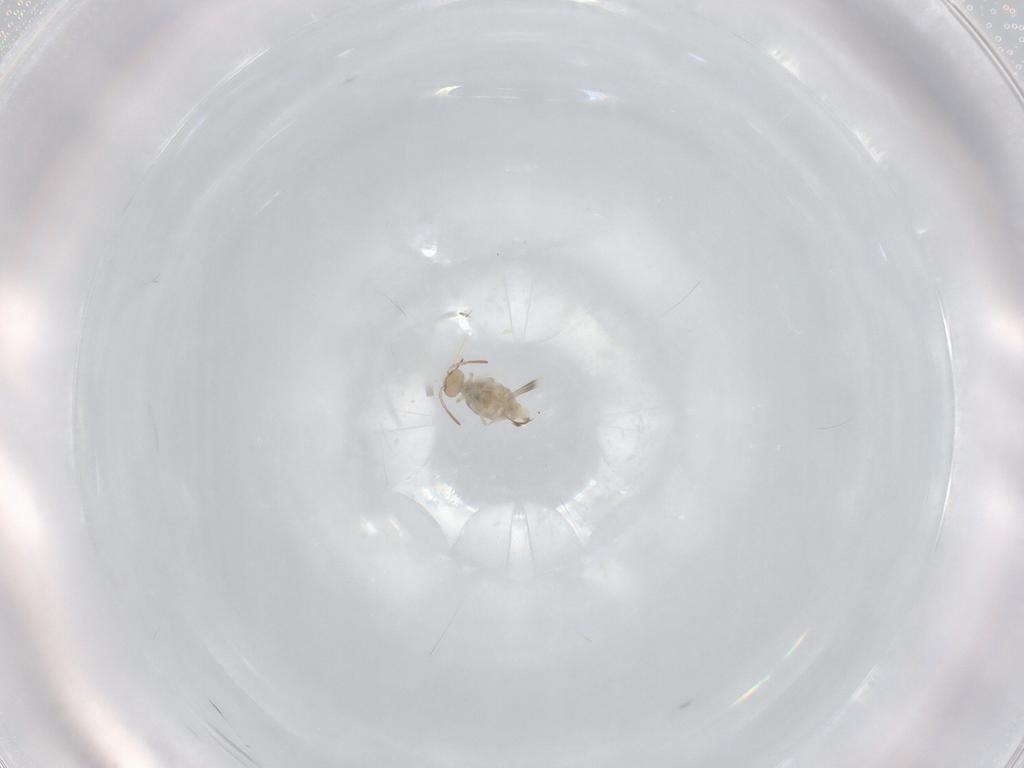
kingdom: Animalia
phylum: Arthropoda
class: Collembola
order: Symphypleona
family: Bourletiellidae
